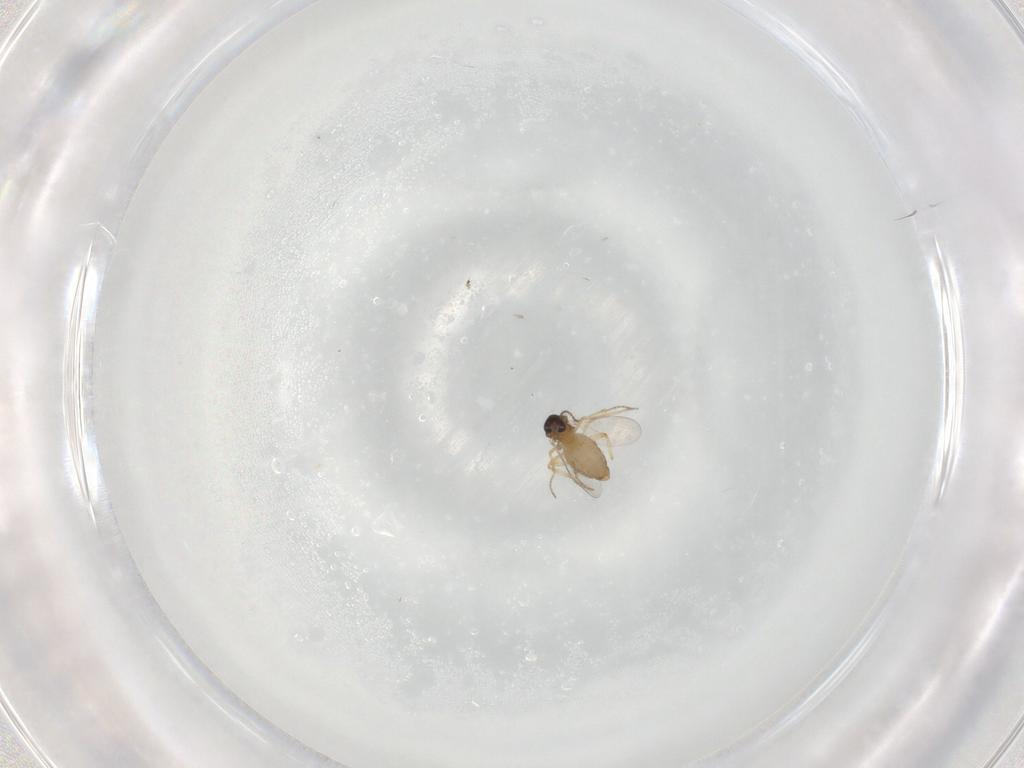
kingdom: Animalia
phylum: Arthropoda
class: Insecta
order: Diptera
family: Ceratopogonidae
